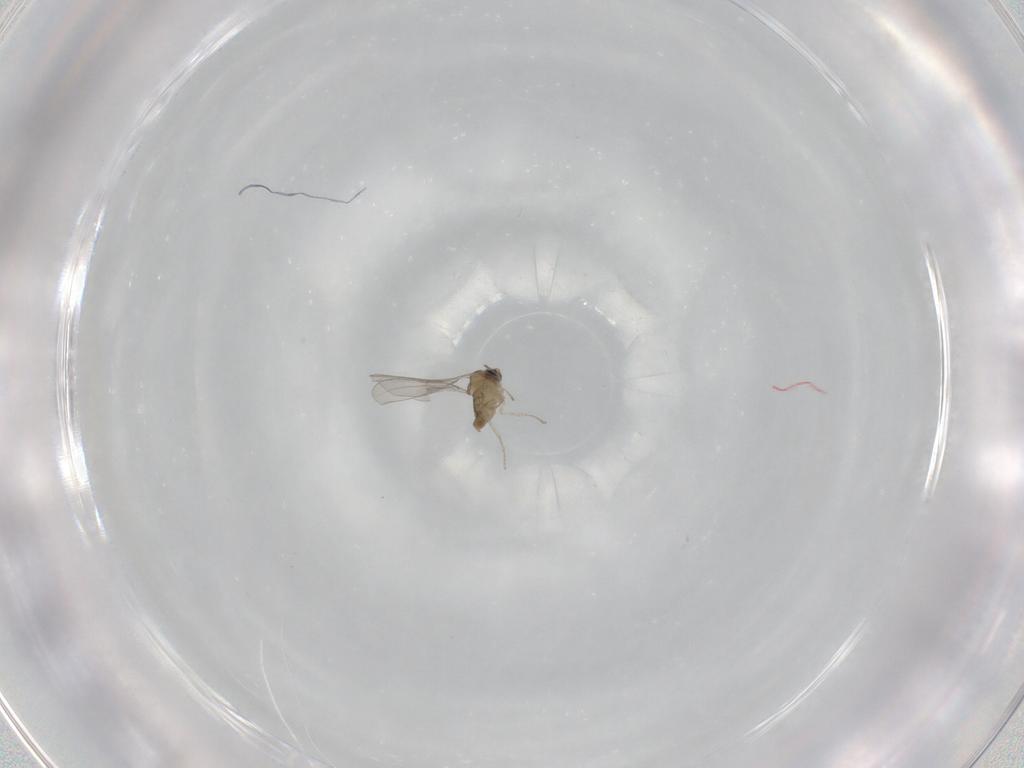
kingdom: Animalia
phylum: Arthropoda
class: Insecta
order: Diptera
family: Cecidomyiidae
